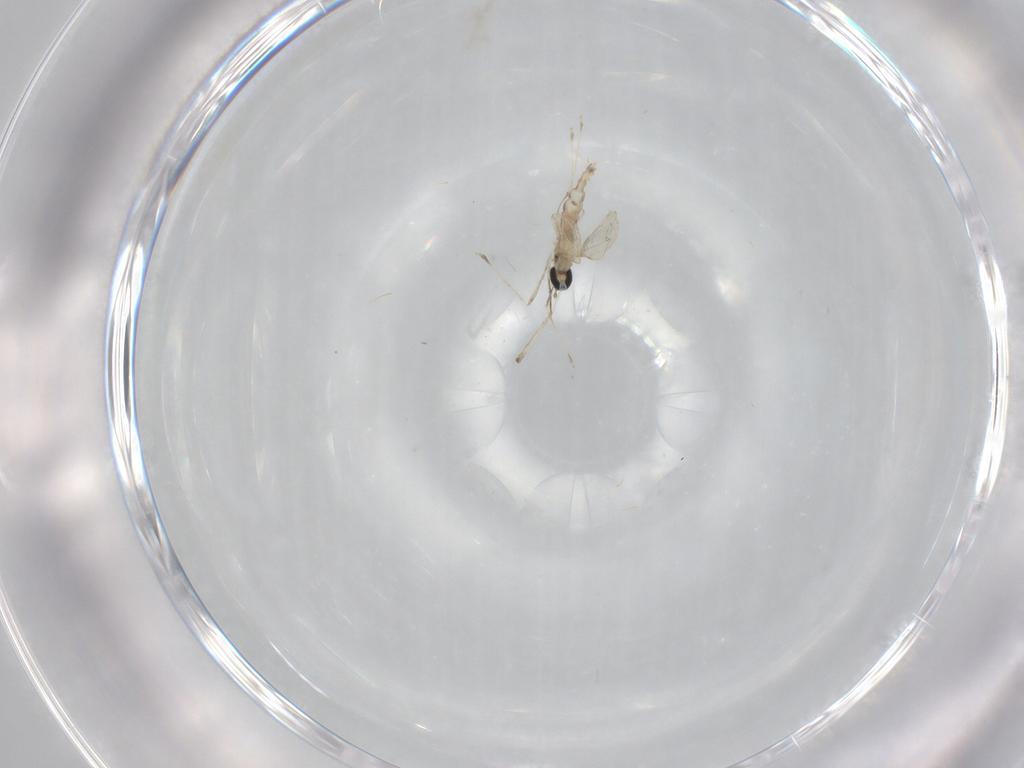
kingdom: Animalia
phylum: Arthropoda
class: Insecta
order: Diptera
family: Cecidomyiidae
